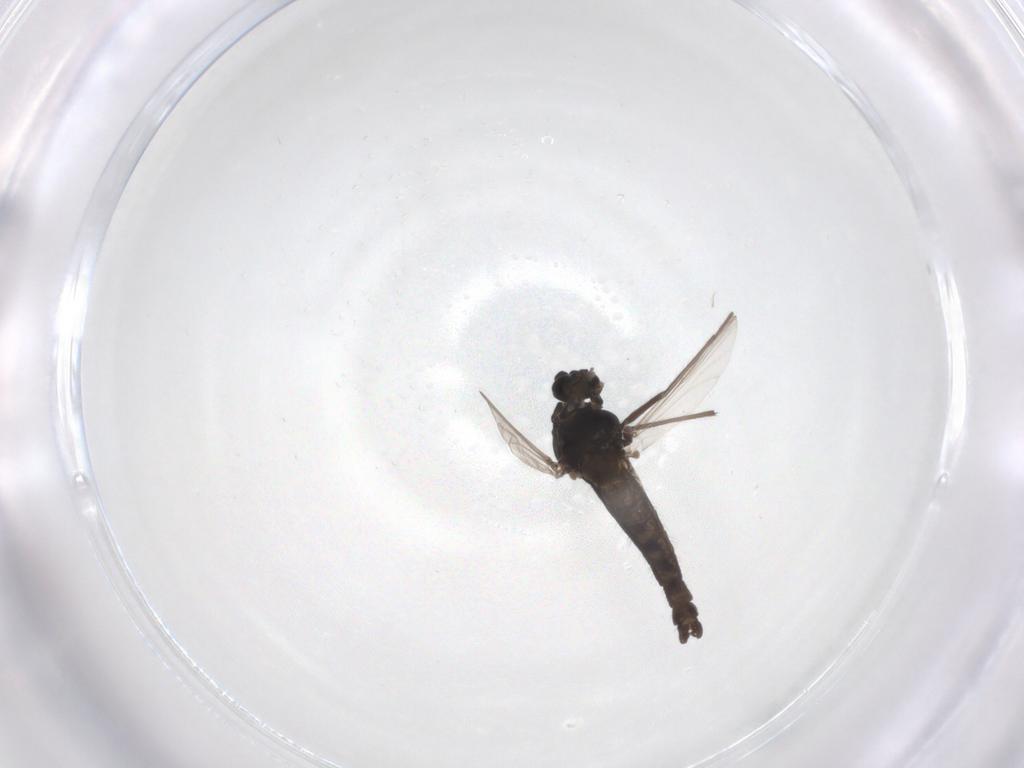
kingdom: Animalia
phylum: Arthropoda
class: Insecta
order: Diptera
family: Chironomidae
